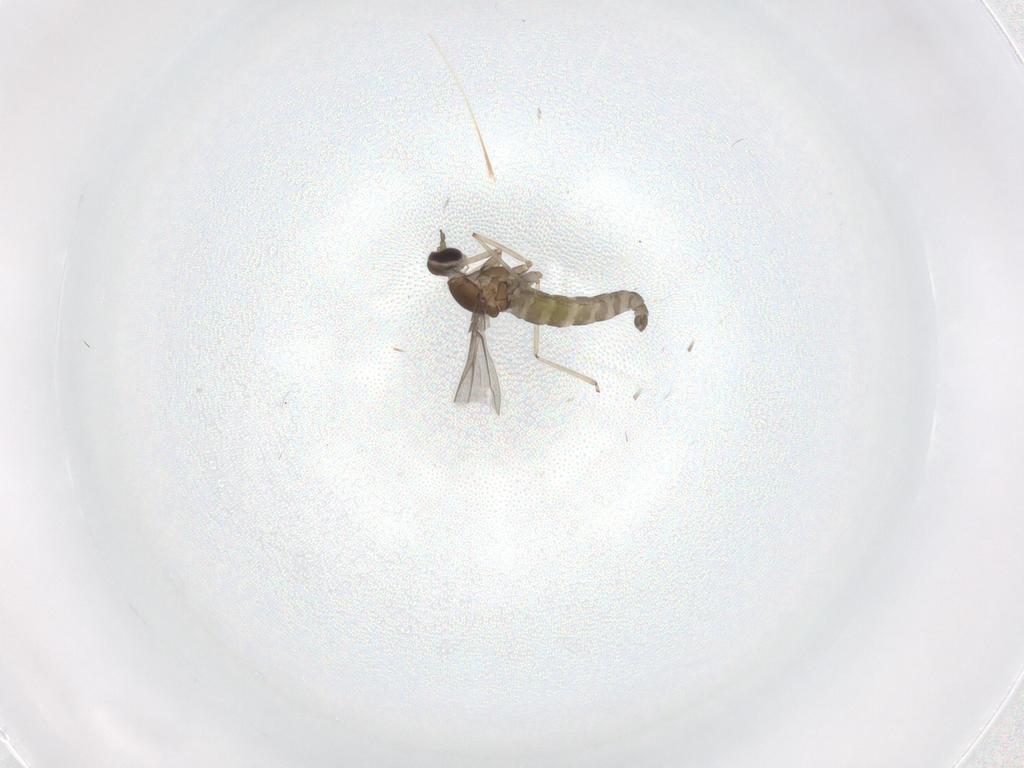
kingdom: Animalia
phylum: Arthropoda
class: Insecta
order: Diptera
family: Cecidomyiidae
